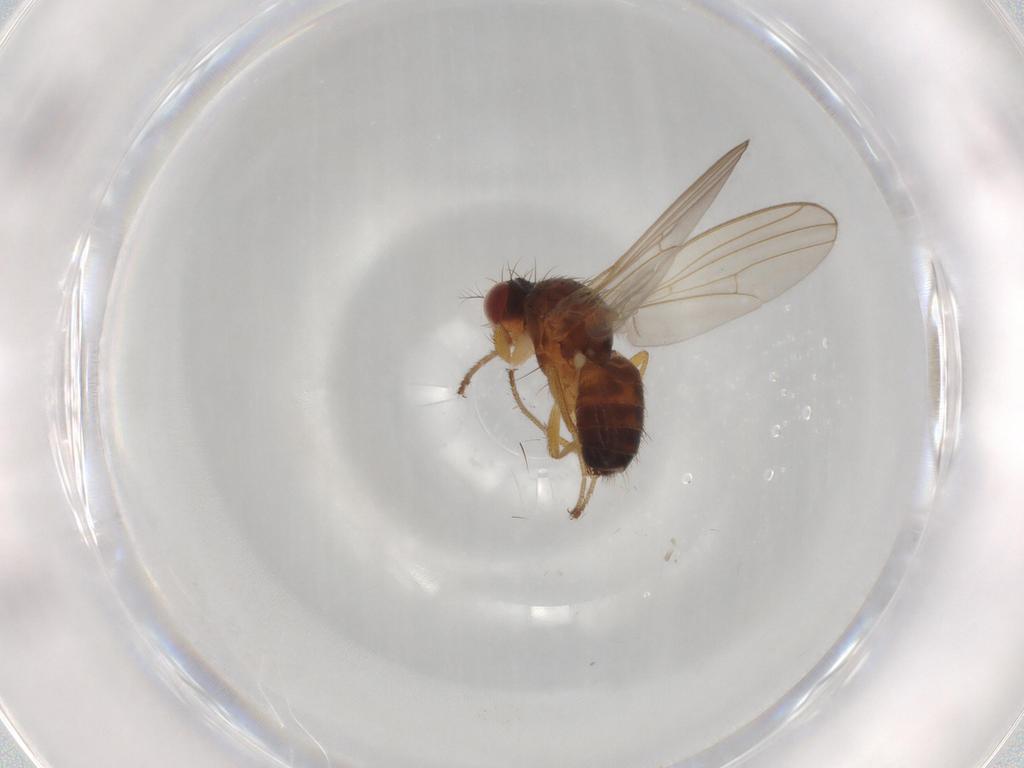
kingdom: Animalia
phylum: Arthropoda
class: Insecta
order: Diptera
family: Drosophilidae
